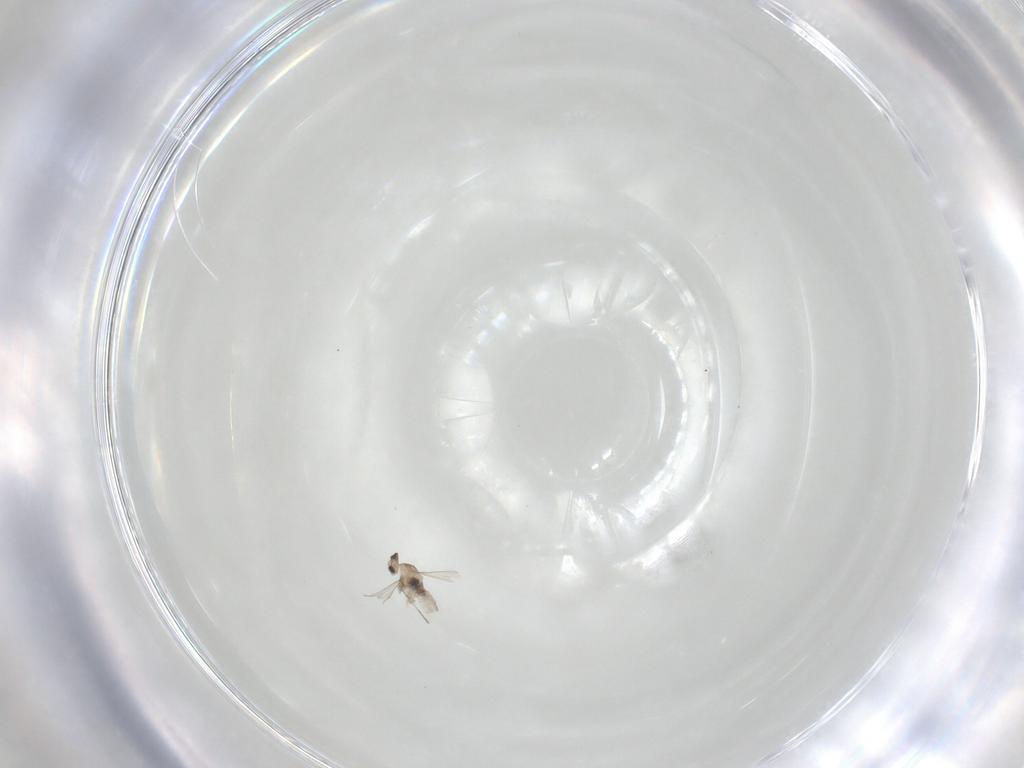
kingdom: Animalia
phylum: Arthropoda
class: Insecta
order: Diptera
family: Cecidomyiidae
